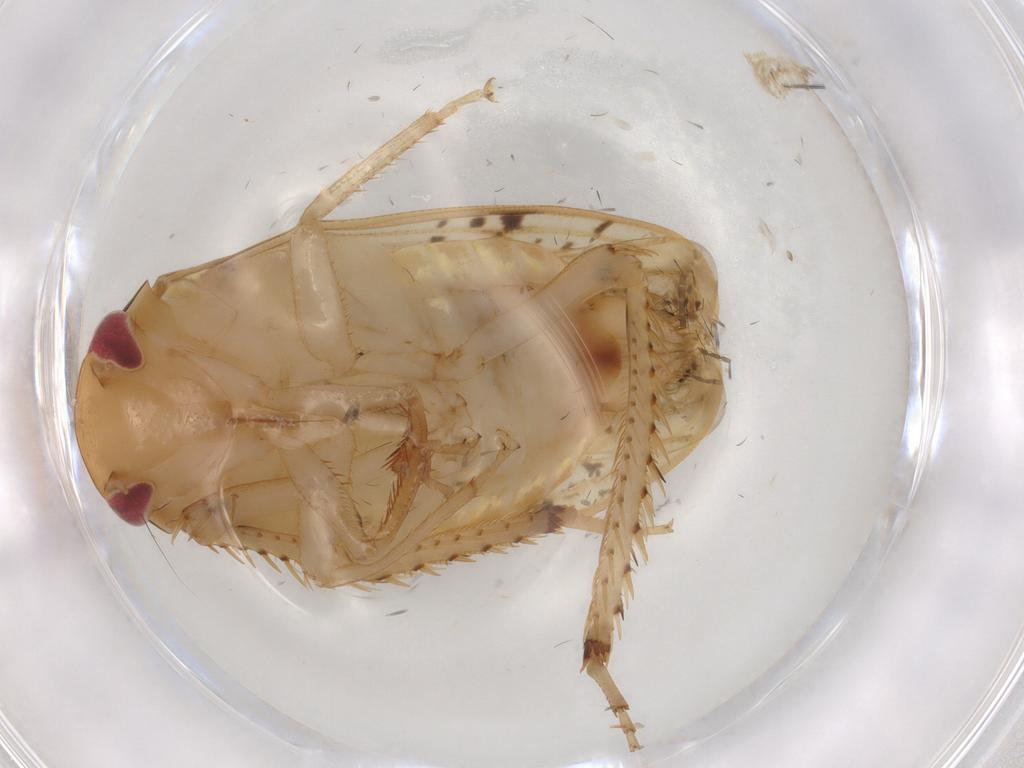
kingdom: Animalia
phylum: Arthropoda
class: Insecta
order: Hemiptera
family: Cicadellidae
